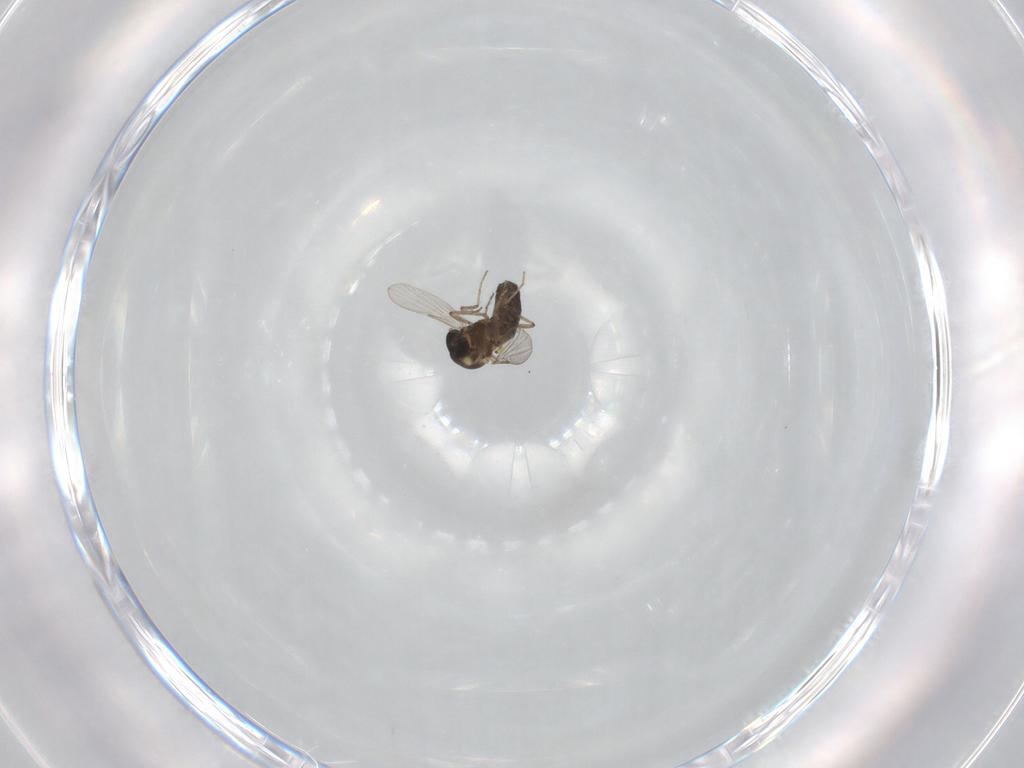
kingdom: Animalia
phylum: Arthropoda
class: Insecta
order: Diptera
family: Ceratopogonidae
